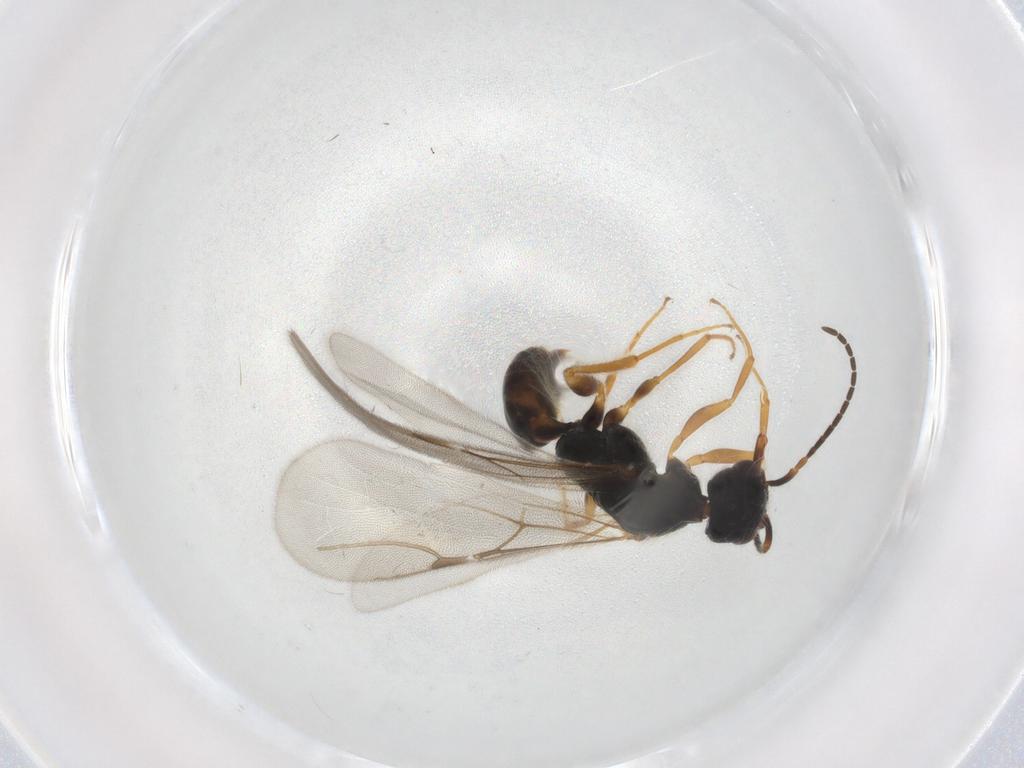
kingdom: Animalia
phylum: Arthropoda
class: Insecta
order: Hymenoptera
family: Bethylidae
